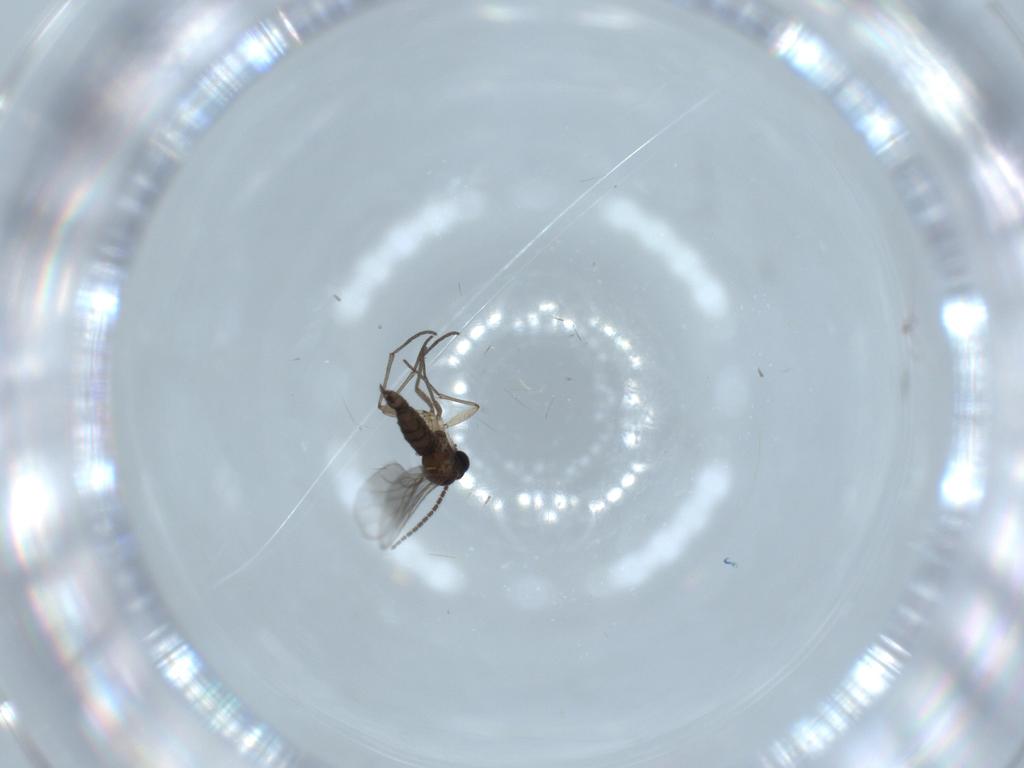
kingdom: Animalia
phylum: Arthropoda
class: Insecta
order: Diptera
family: Sciaridae
